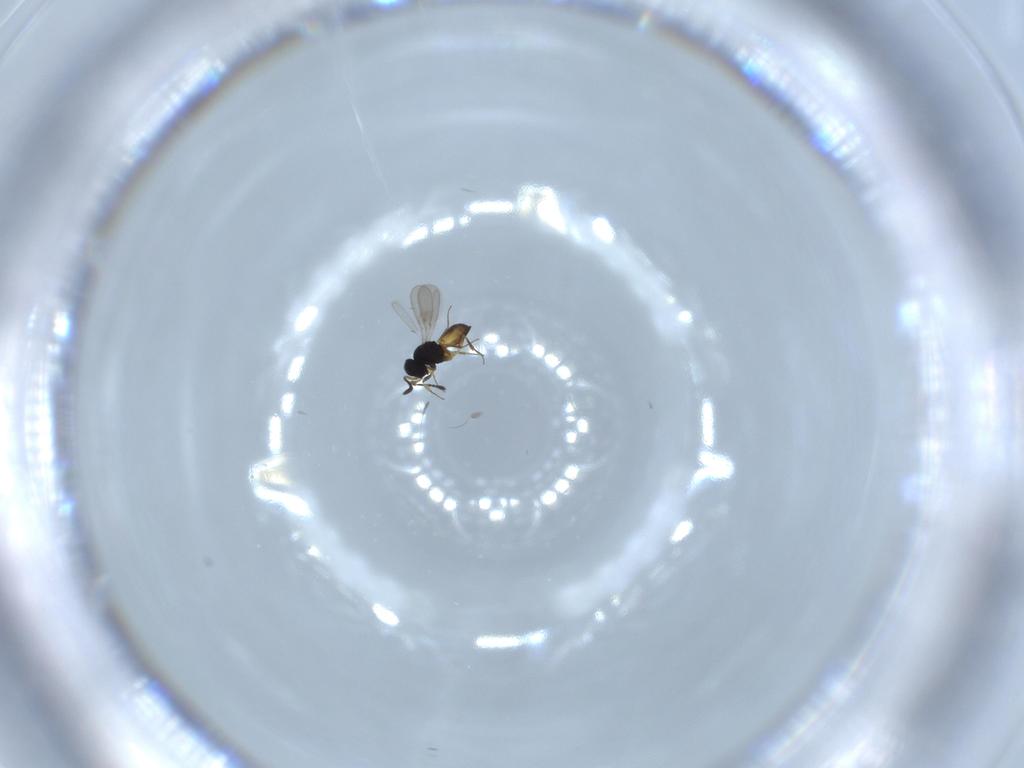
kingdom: Animalia
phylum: Arthropoda
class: Insecta
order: Hymenoptera
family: Scelionidae
